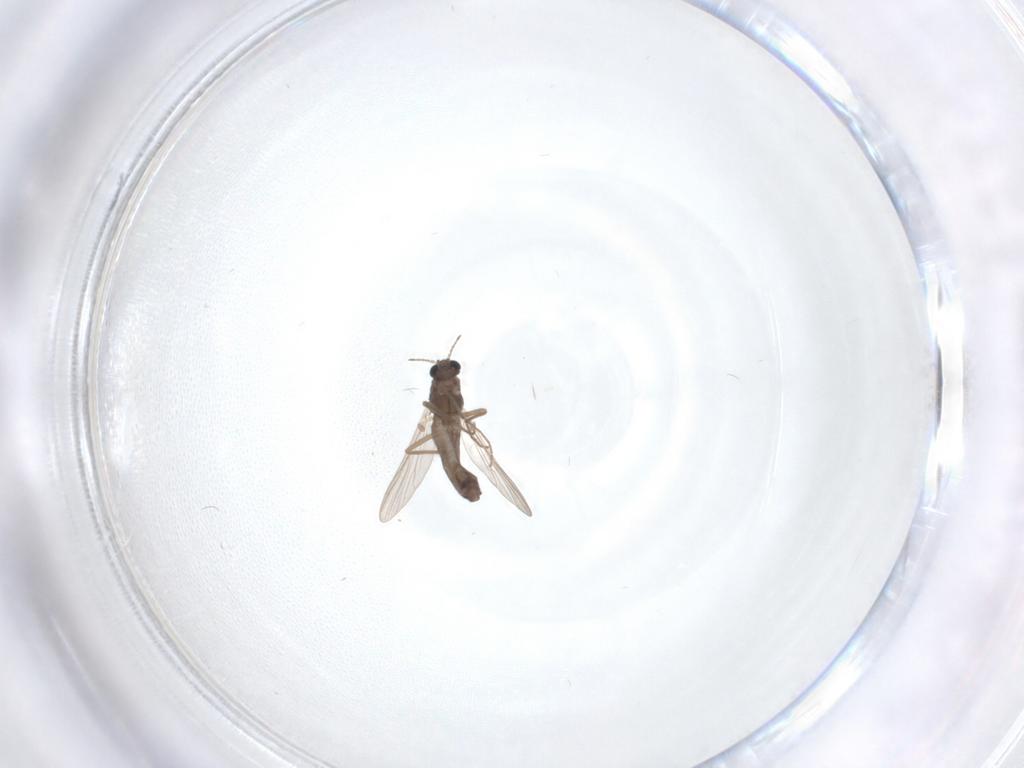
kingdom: Animalia
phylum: Arthropoda
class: Insecta
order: Diptera
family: Chironomidae
